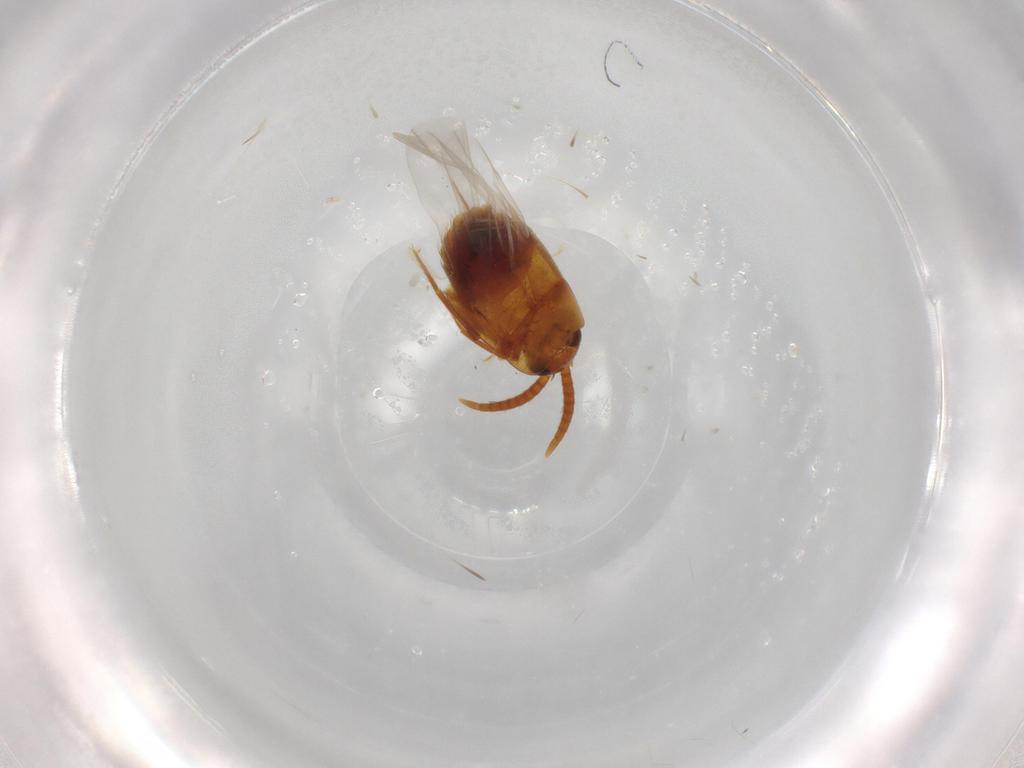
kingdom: Animalia
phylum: Arthropoda
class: Insecta
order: Coleoptera
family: Staphylinidae
